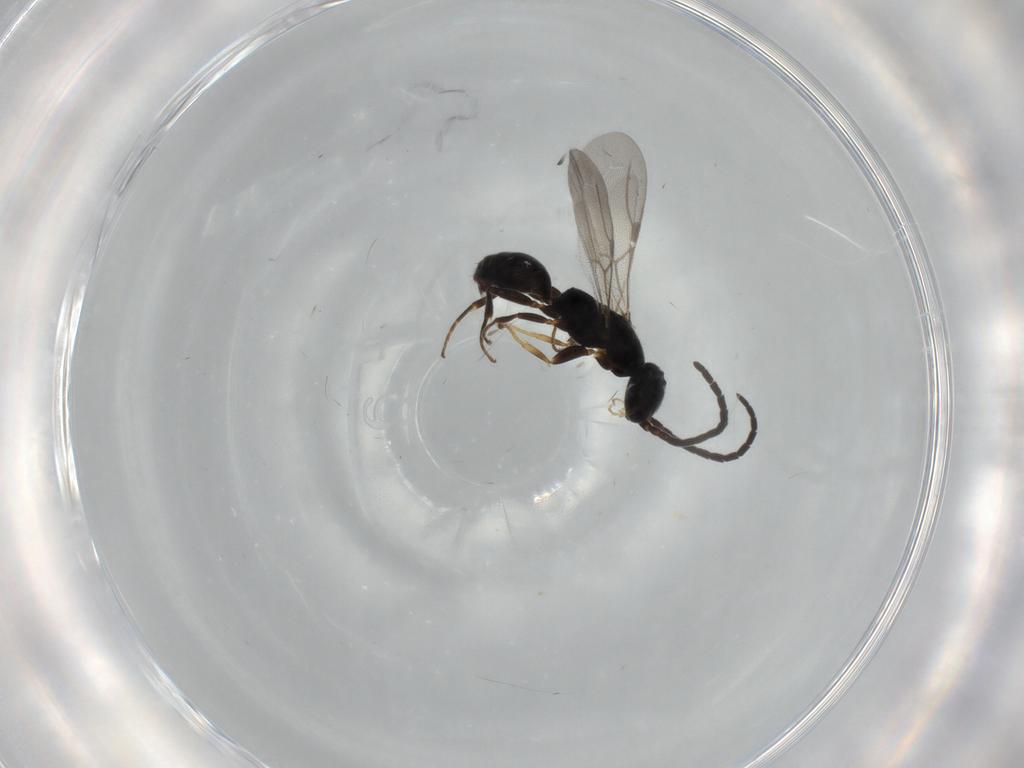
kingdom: Animalia
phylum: Arthropoda
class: Insecta
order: Hymenoptera
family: Bethylidae
